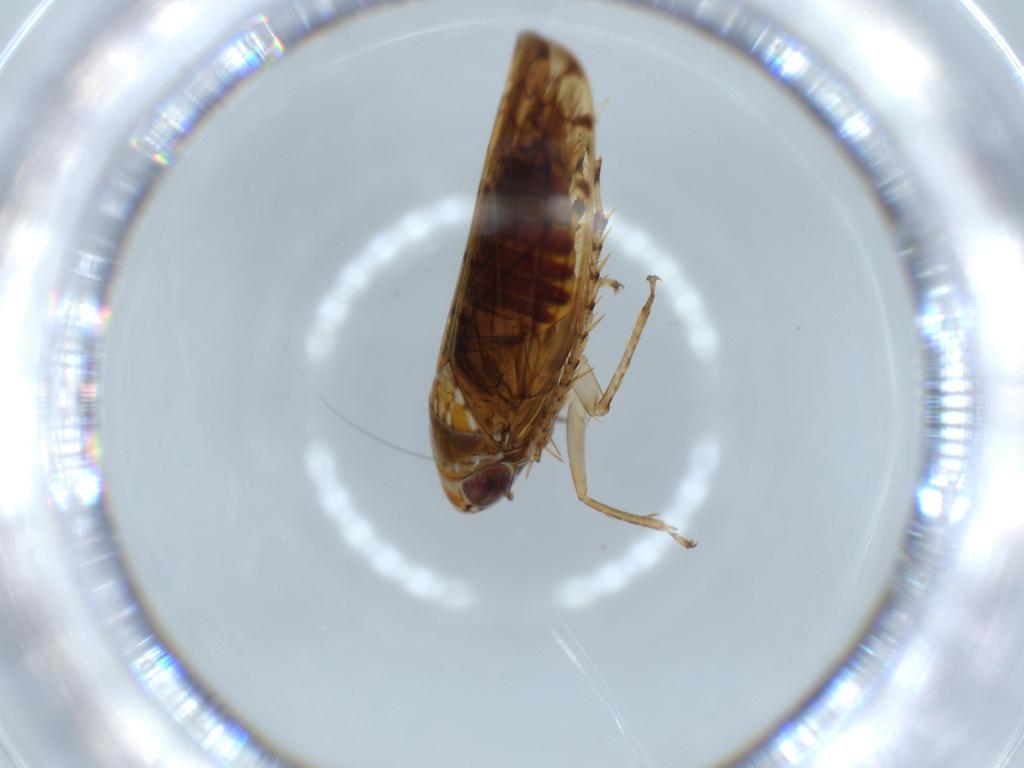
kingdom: Animalia
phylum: Arthropoda
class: Insecta
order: Hemiptera
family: Cicadellidae
